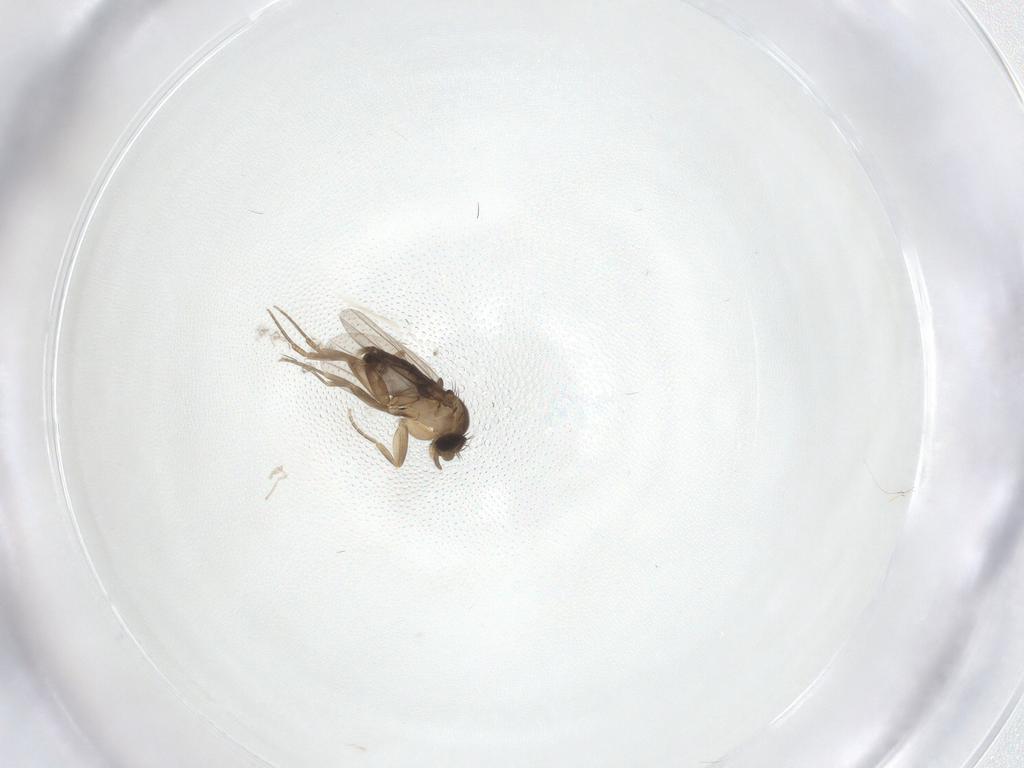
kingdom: Animalia
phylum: Arthropoda
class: Insecta
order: Diptera
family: Phoridae
